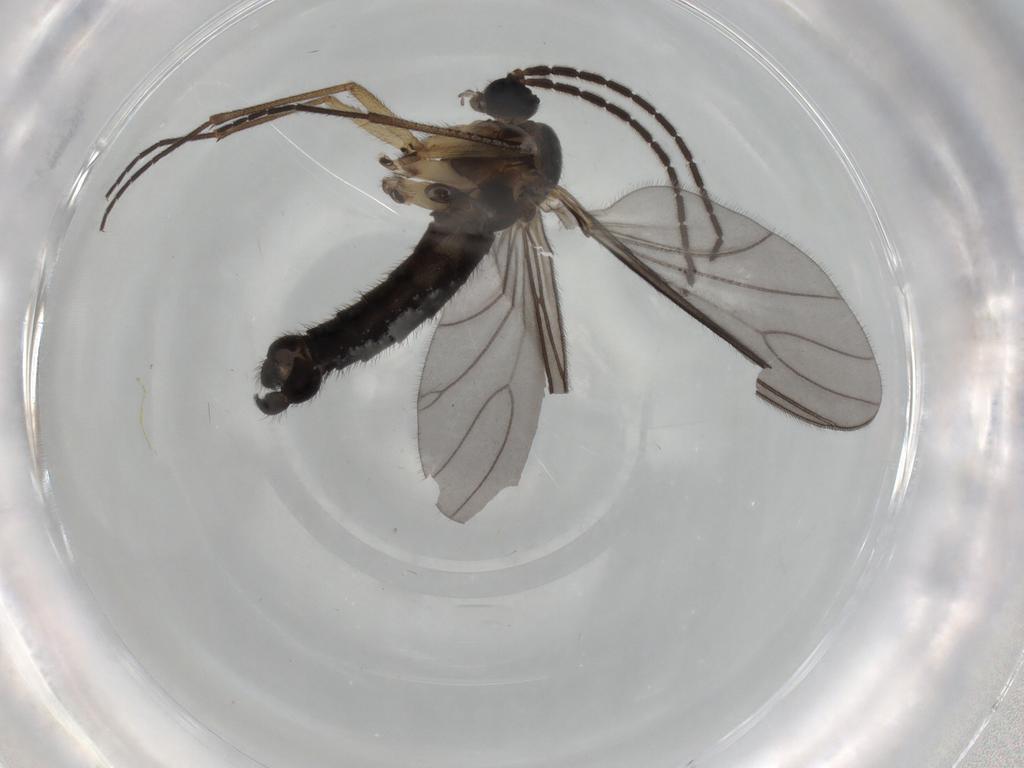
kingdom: Animalia
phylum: Arthropoda
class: Insecta
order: Diptera
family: Sciaridae
